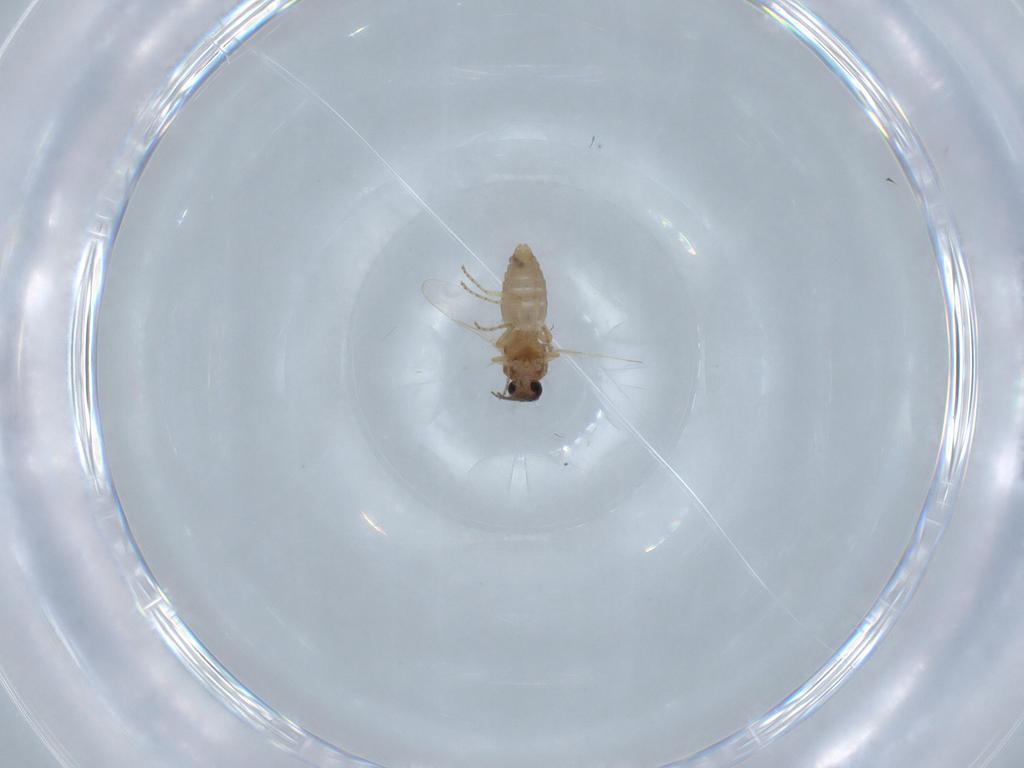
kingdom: Animalia
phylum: Arthropoda
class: Insecta
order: Diptera
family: Ceratopogonidae
